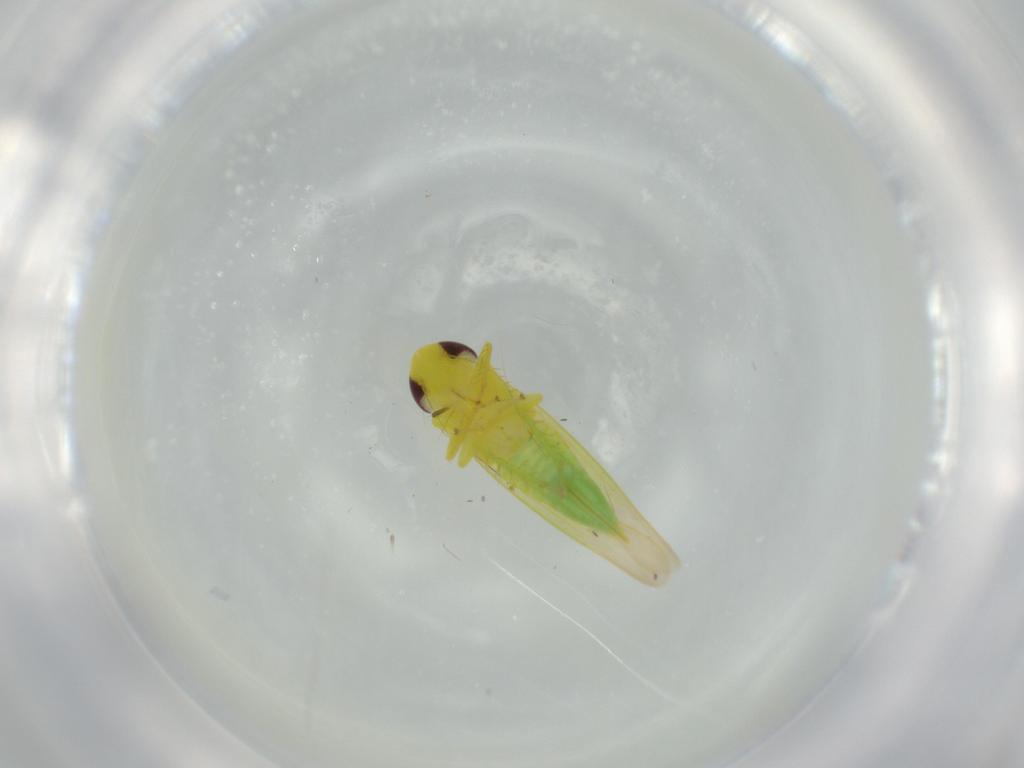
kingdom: Animalia
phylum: Arthropoda
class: Insecta
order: Hemiptera
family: Cicadellidae
